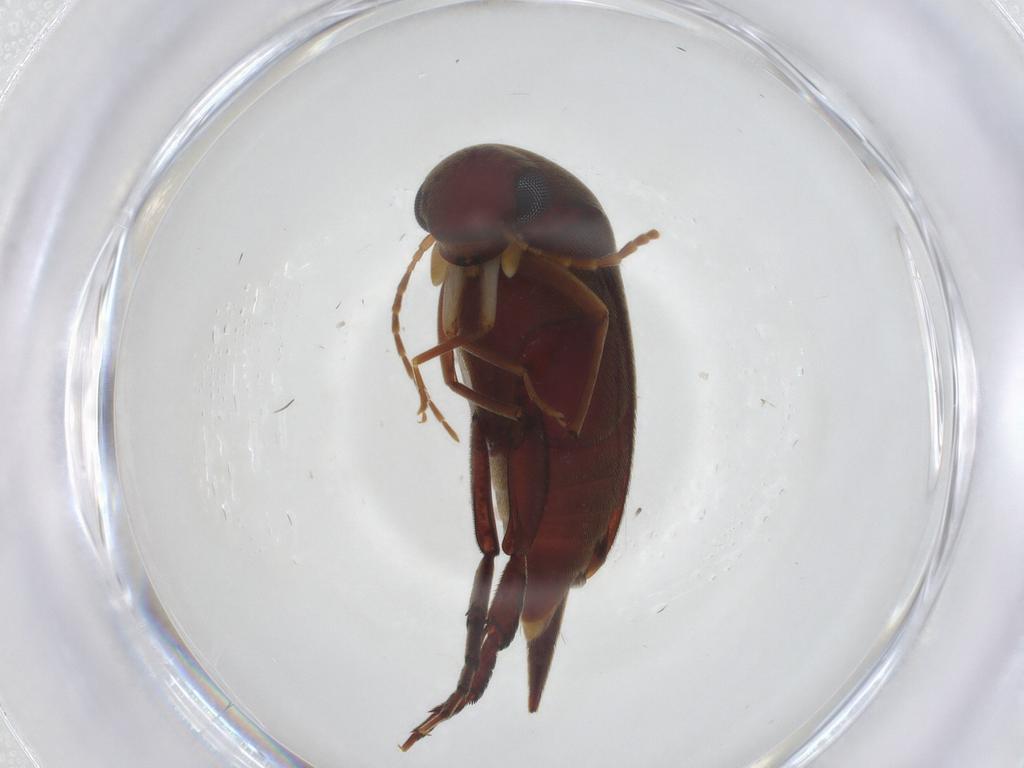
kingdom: Animalia
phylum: Arthropoda
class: Insecta
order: Coleoptera
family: Mordellidae
